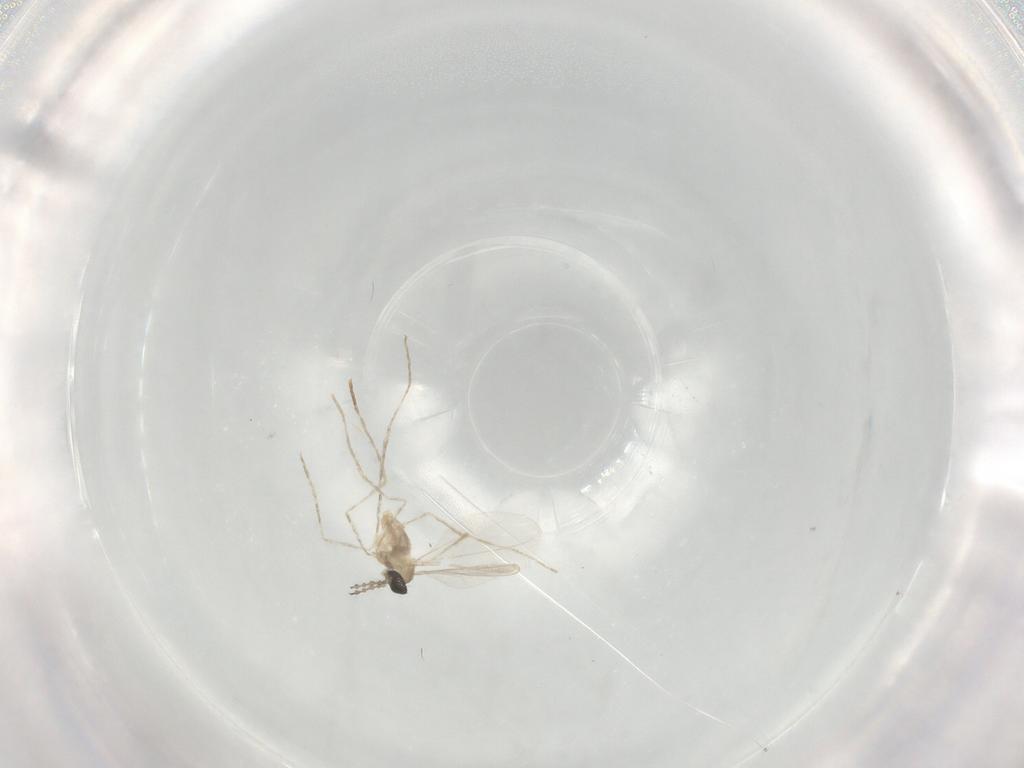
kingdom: Animalia
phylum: Arthropoda
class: Insecta
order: Diptera
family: Cecidomyiidae
